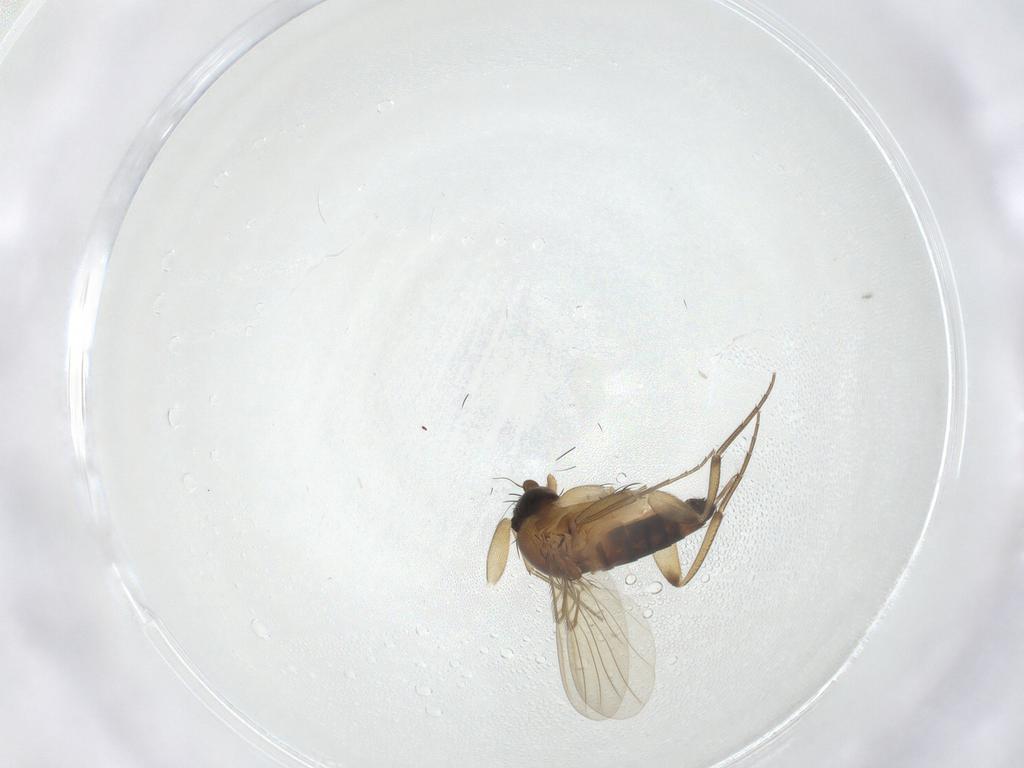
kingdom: Animalia
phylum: Arthropoda
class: Insecta
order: Diptera
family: Phoridae
